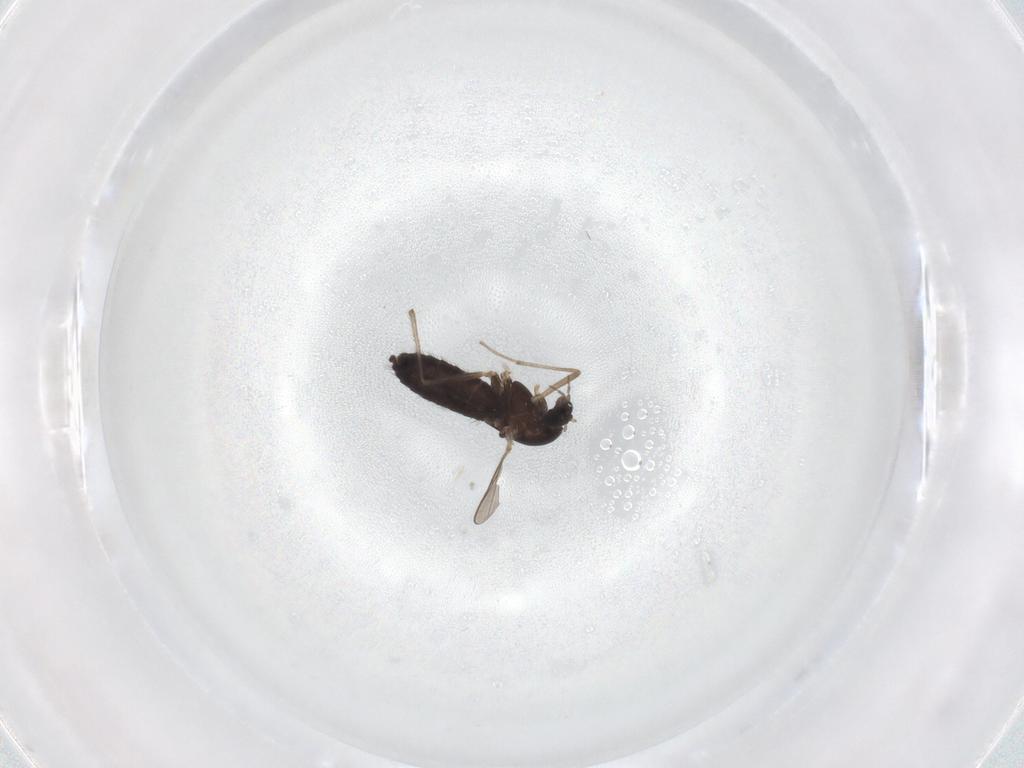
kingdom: Animalia
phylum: Arthropoda
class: Insecta
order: Diptera
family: Chironomidae
